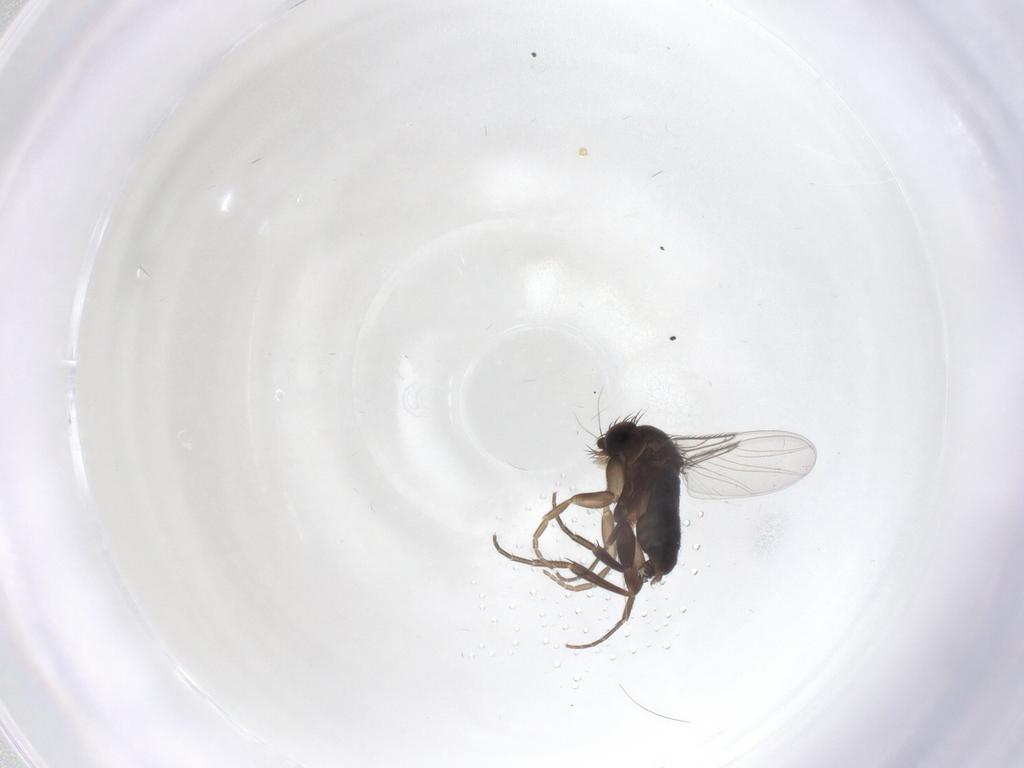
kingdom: Animalia
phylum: Arthropoda
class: Insecta
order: Diptera
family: Phoridae
